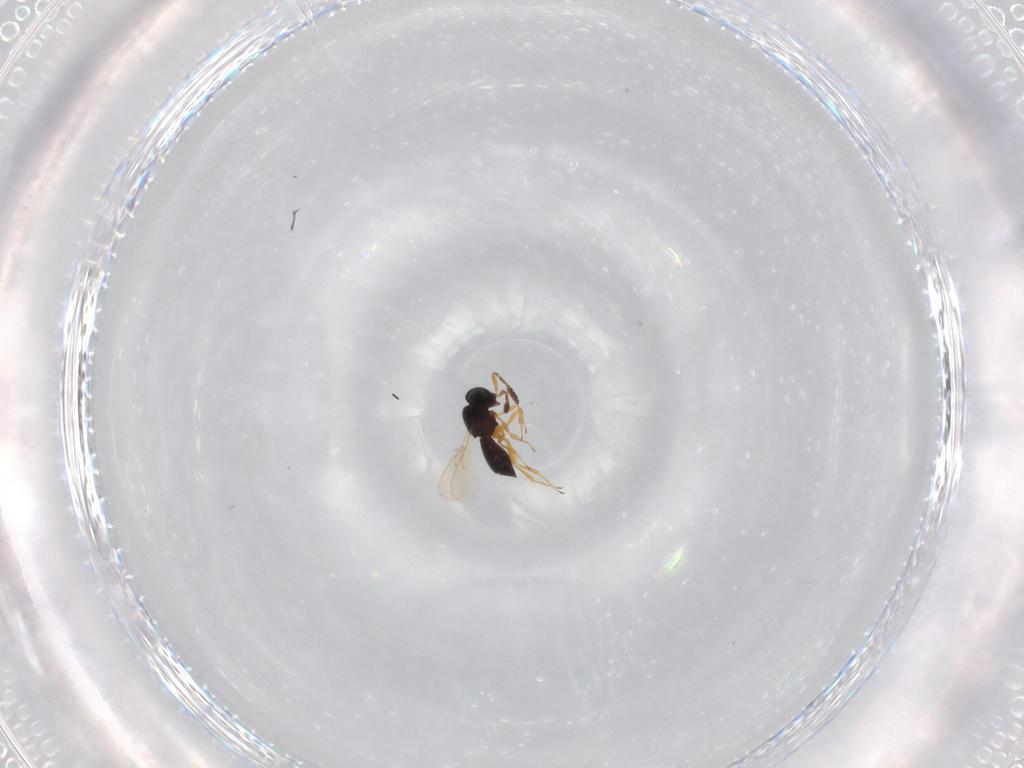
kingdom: Animalia
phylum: Arthropoda
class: Insecta
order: Hymenoptera
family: Scelionidae
